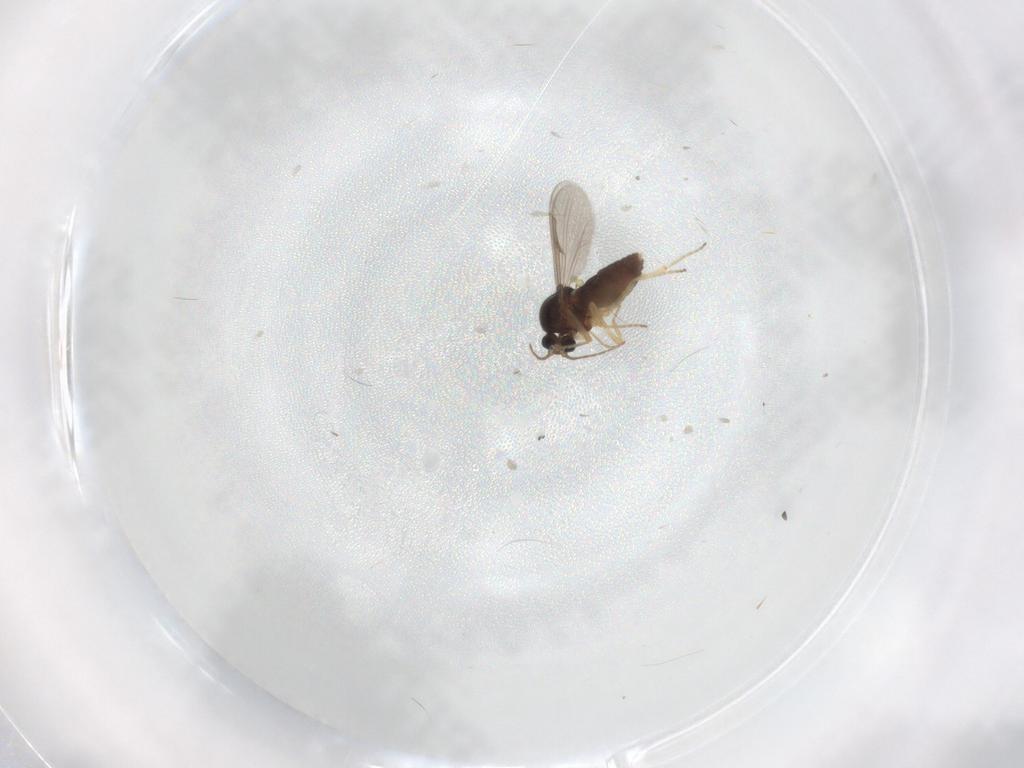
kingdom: Animalia
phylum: Arthropoda
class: Insecta
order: Diptera
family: Ceratopogonidae
